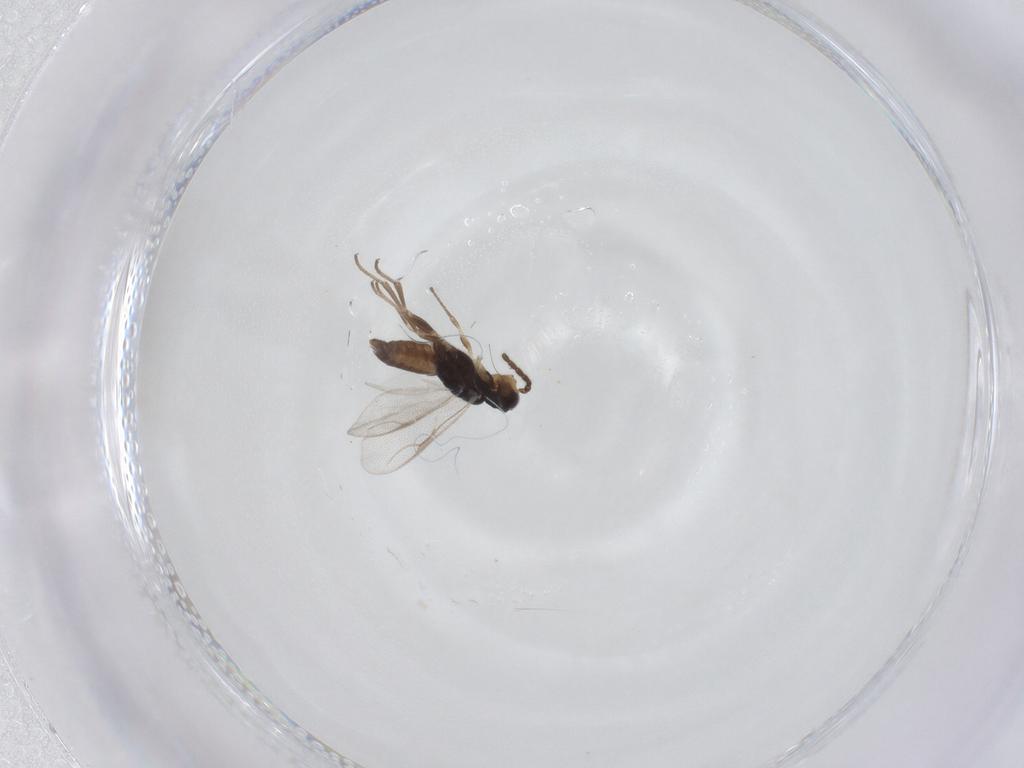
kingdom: Animalia
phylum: Arthropoda
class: Insecta
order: Hymenoptera
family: Dryinidae
